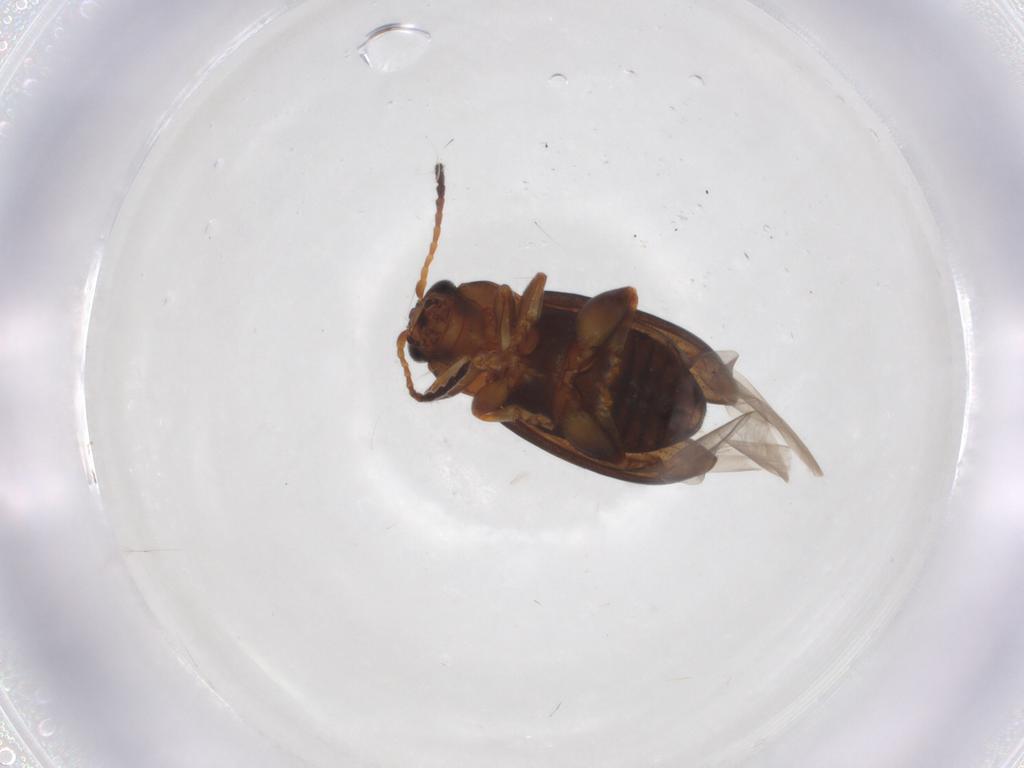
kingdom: Animalia
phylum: Arthropoda
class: Insecta
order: Coleoptera
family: Chrysomelidae
